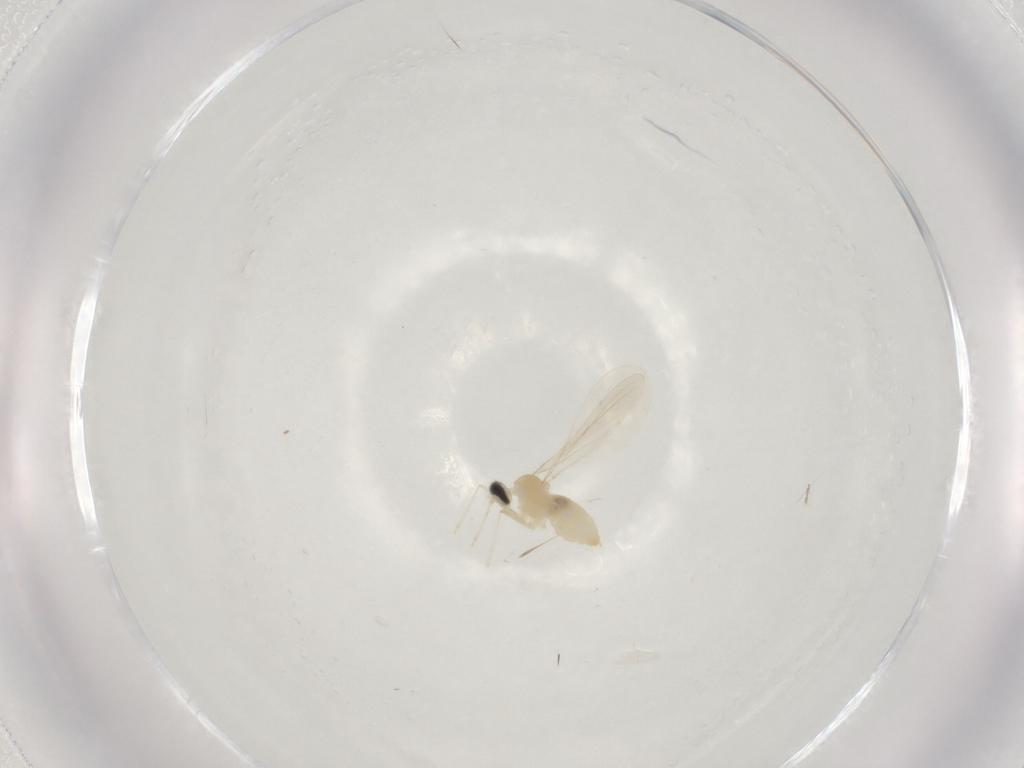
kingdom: Animalia
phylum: Arthropoda
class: Insecta
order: Diptera
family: Cecidomyiidae
